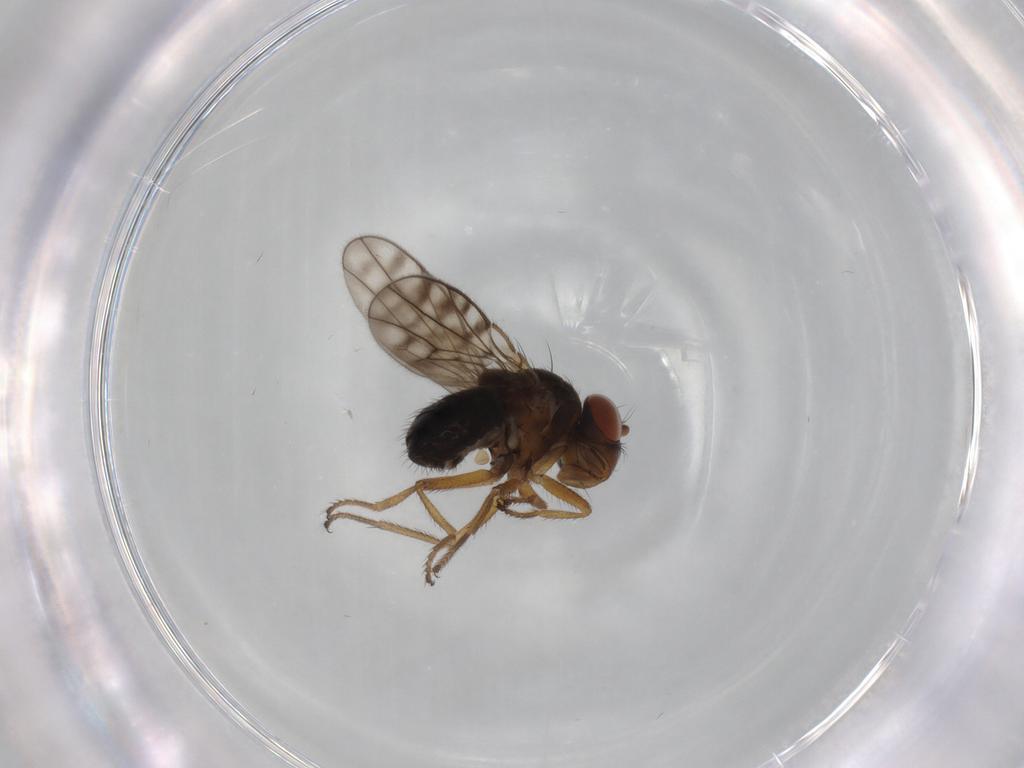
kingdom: Animalia
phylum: Arthropoda
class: Insecta
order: Diptera
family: Ephydridae
